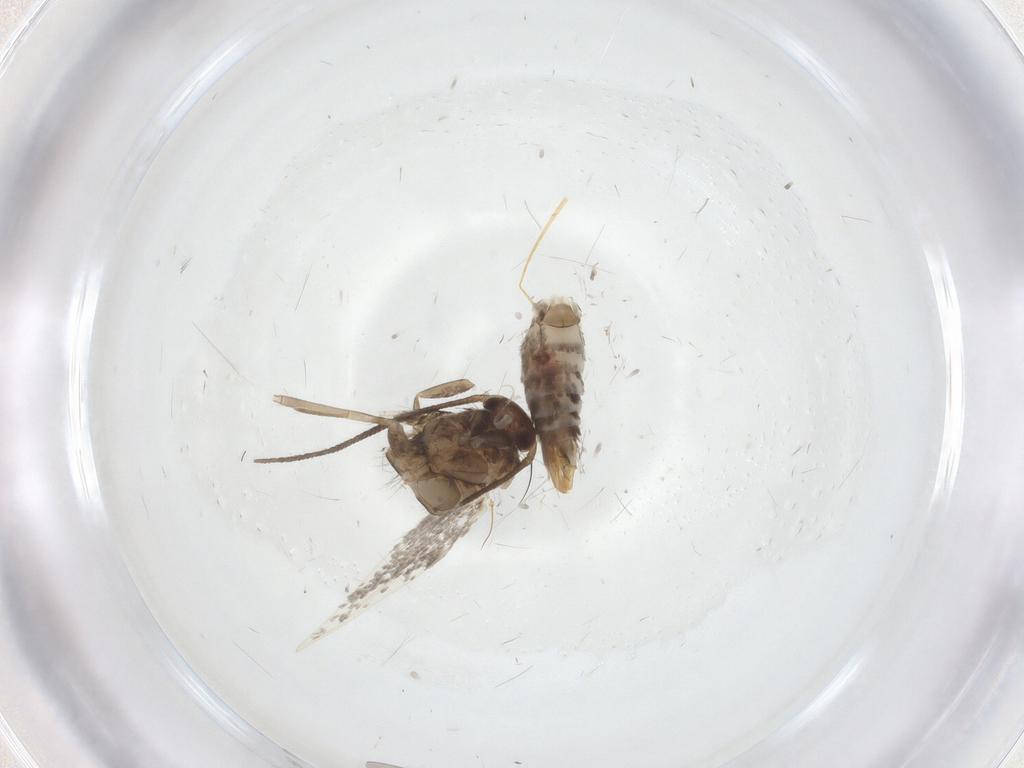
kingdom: Animalia
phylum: Arthropoda
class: Insecta
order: Lepidoptera
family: Elachistidae
